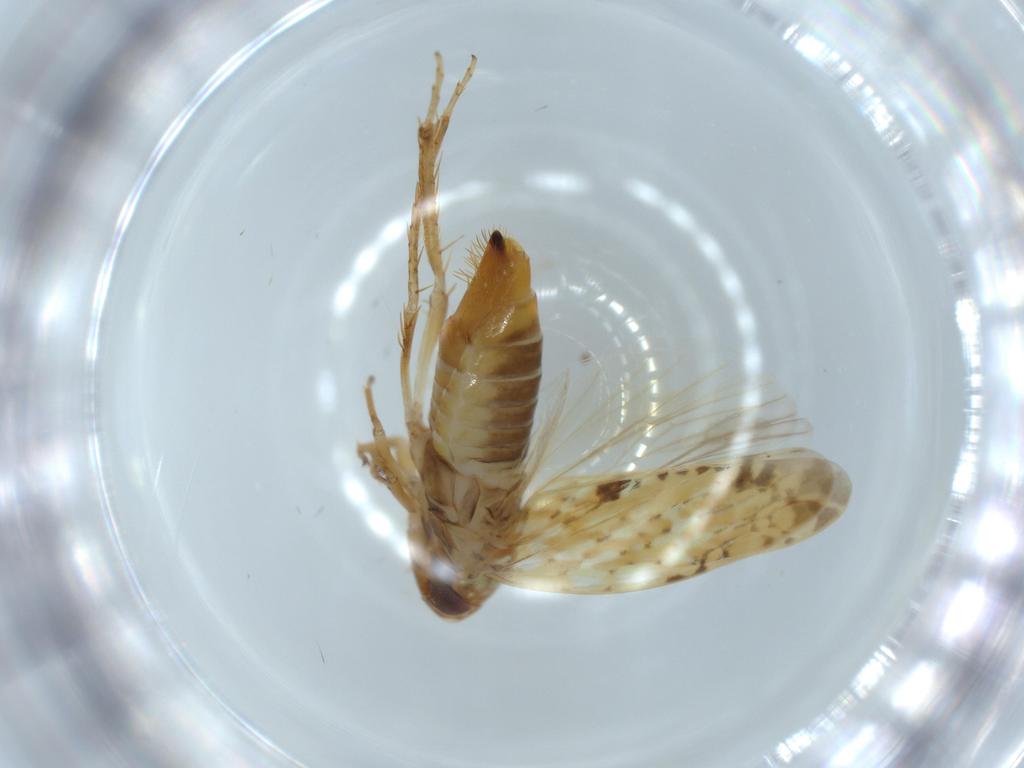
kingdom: Animalia
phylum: Arthropoda
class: Insecta
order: Hemiptera
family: Cicadellidae
